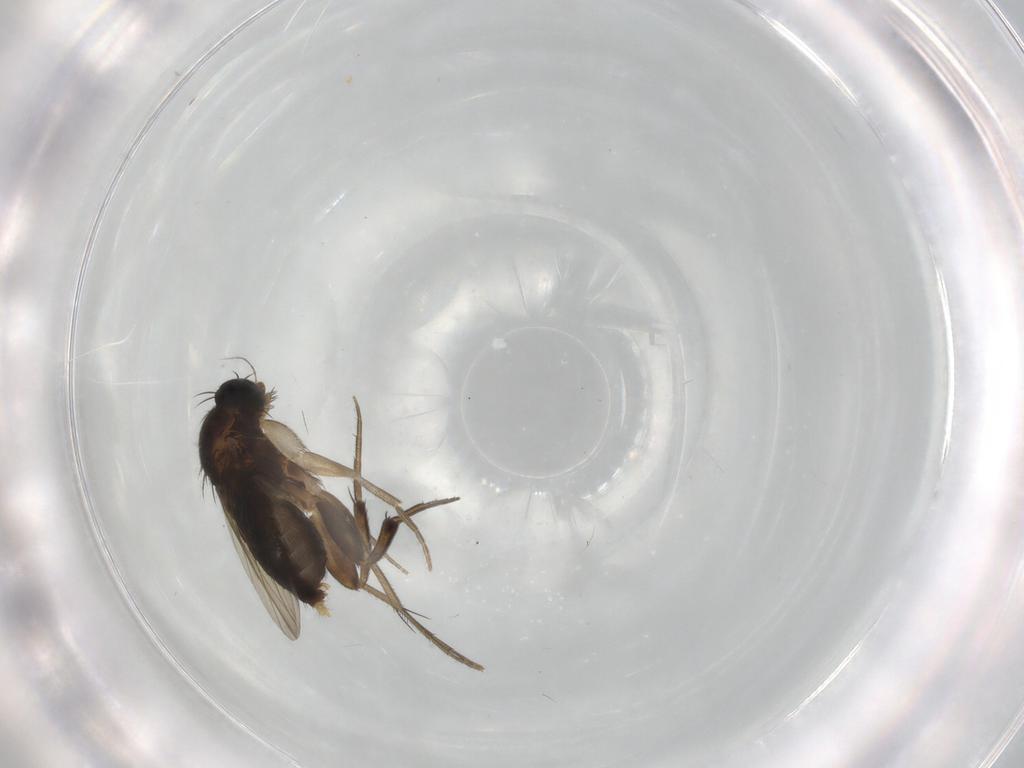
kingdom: Animalia
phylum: Arthropoda
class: Insecta
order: Diptera
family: Phoridae
